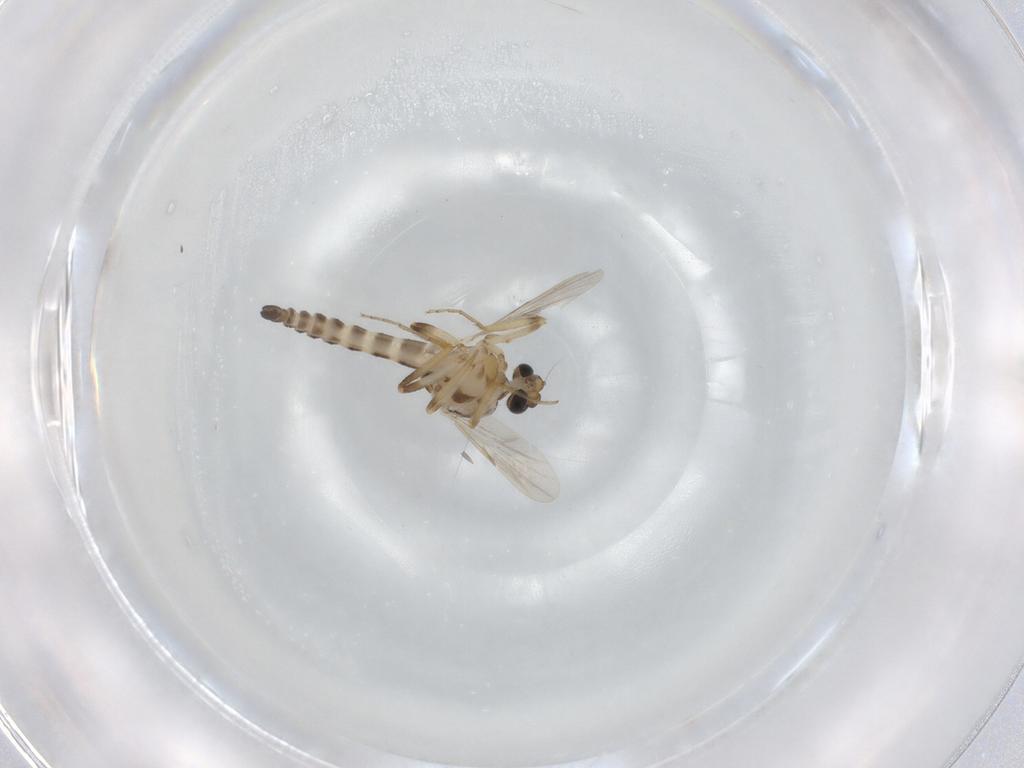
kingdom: Animalia
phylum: Arthropoda
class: Insecta
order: Diptera
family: Ceratopogonidae
